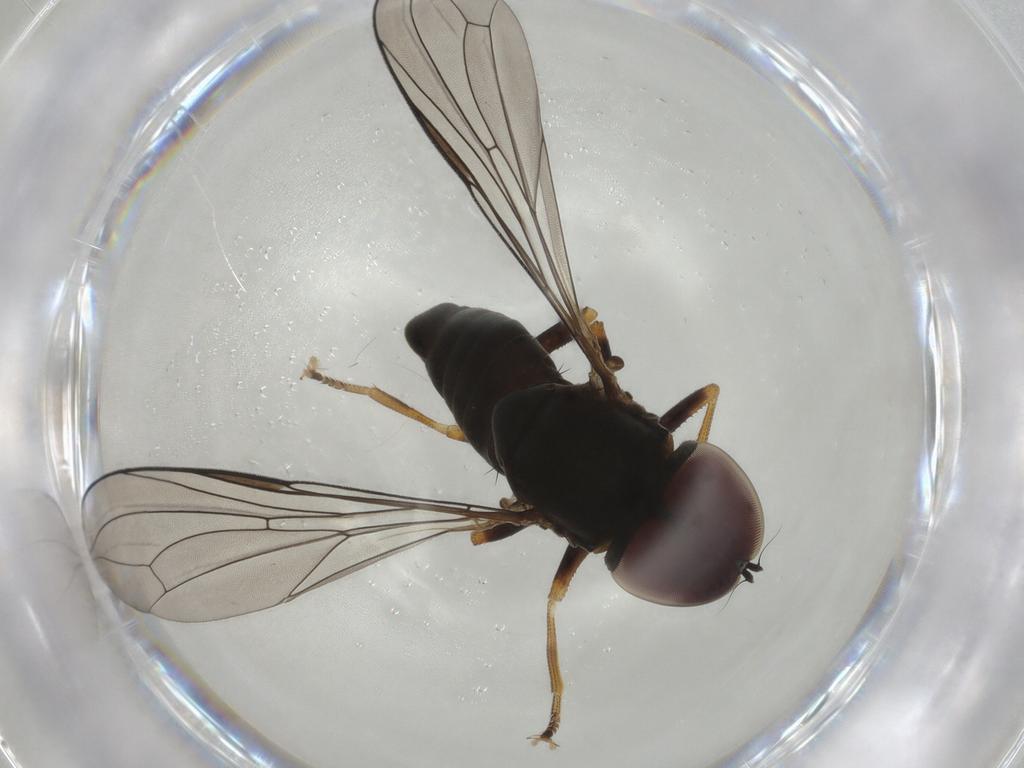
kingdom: Animalia
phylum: Arthropoda
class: Insecta
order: Diptera
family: Pipunculidae
